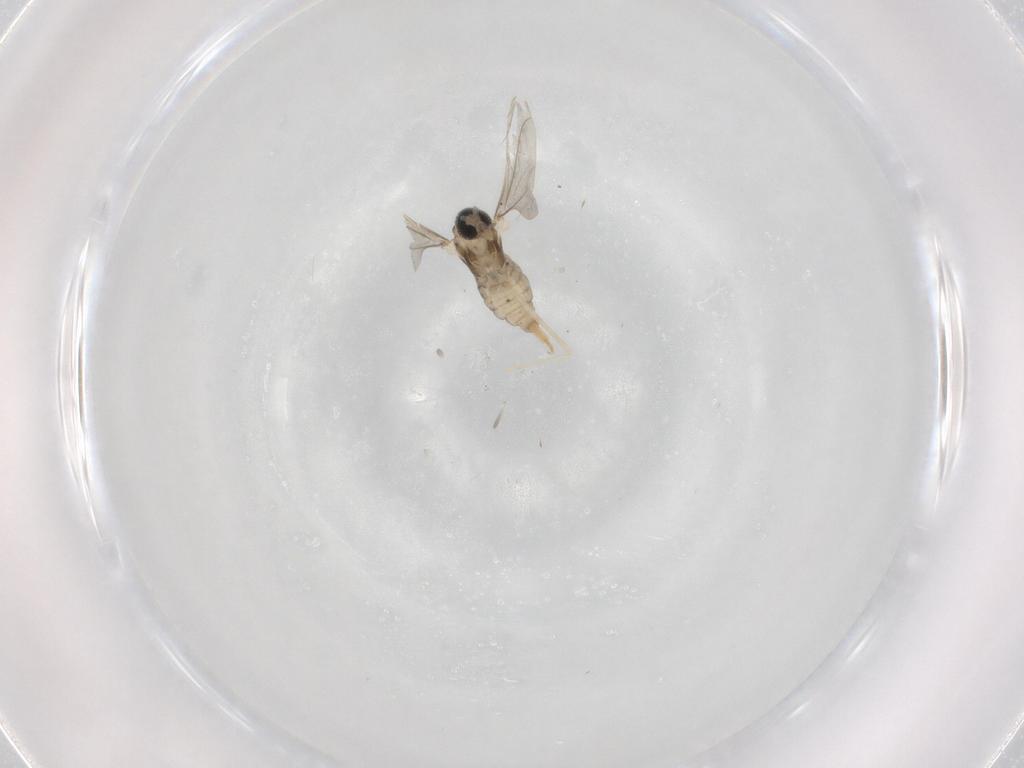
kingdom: Animalia
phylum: Arthropoda
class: Insecta
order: Diptera
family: Cecidomyiidae
